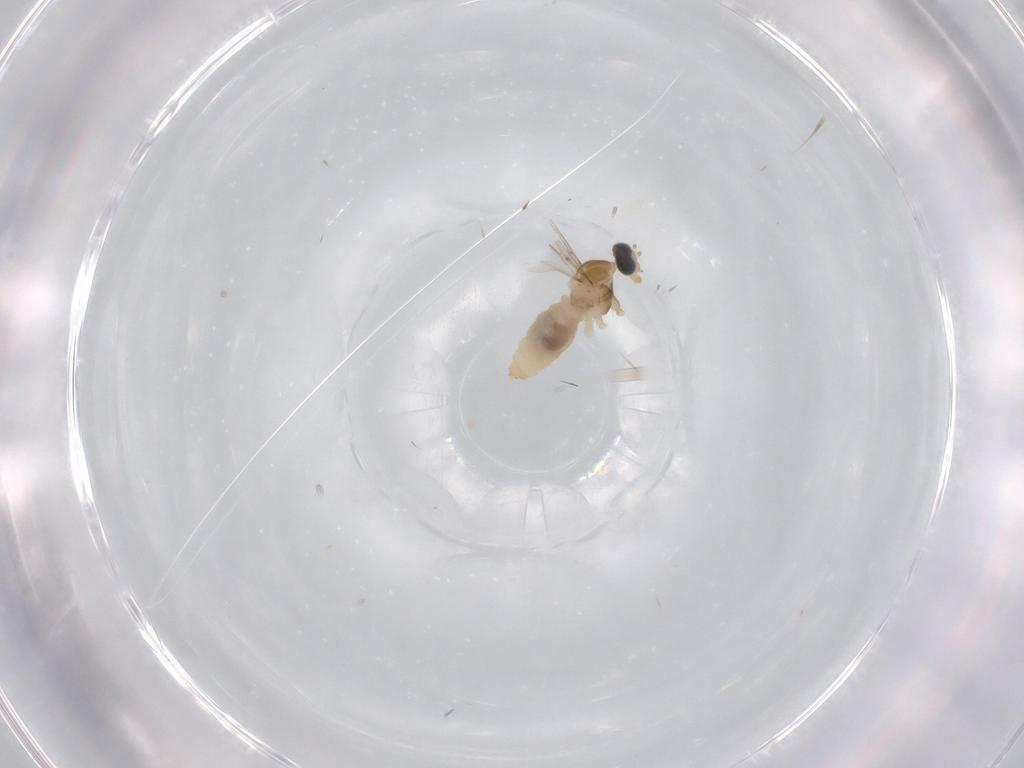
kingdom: Animalia
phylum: Arthropoda
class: Insecta
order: Diptera
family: Cecidomyiidae
